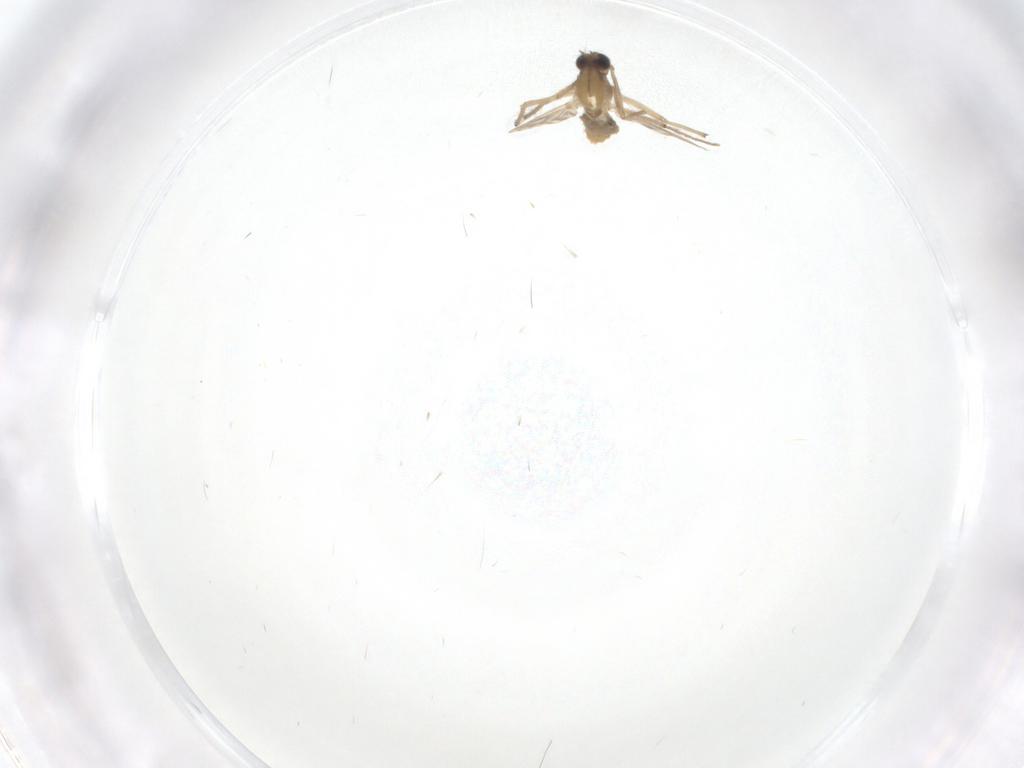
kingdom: Animalia
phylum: Arthropoda
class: Insecta
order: Diptera
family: Chironomidae
